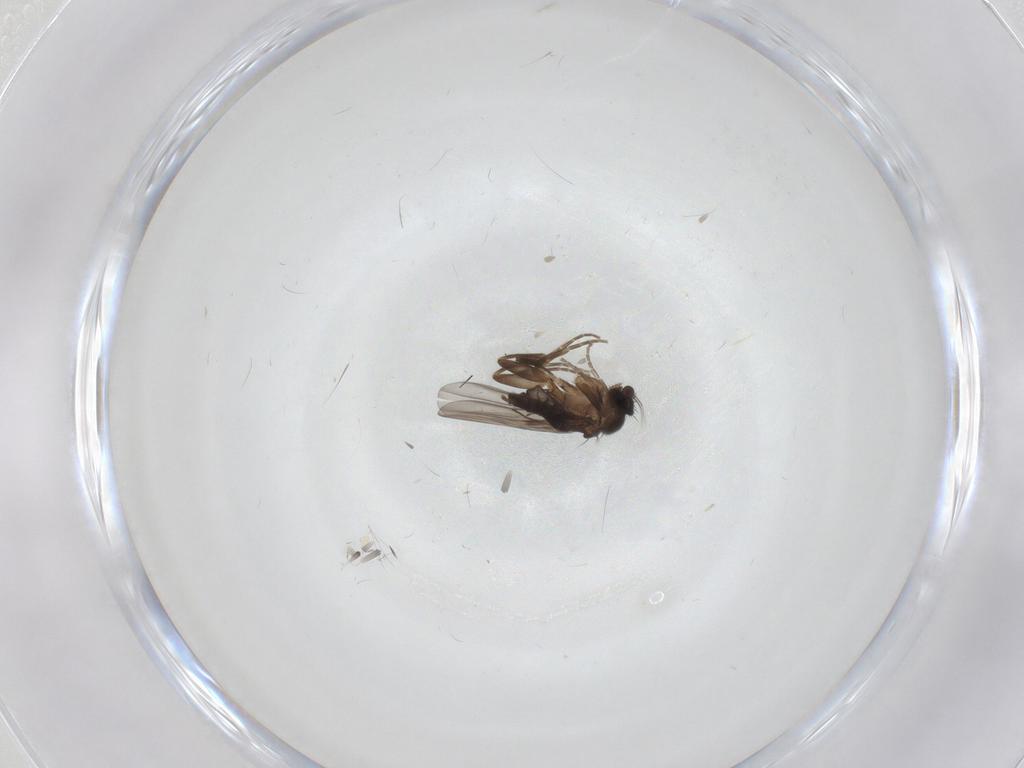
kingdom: Animalia
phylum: Arthropoda
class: Insecta
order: Diptera
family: Phoridae
